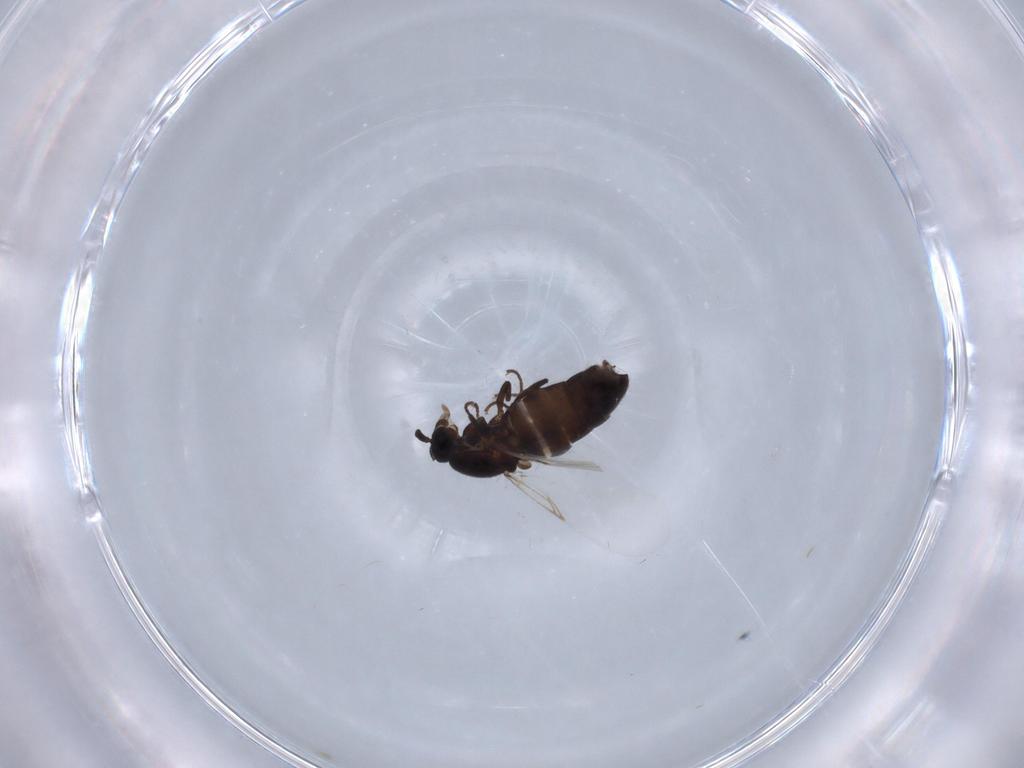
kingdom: Animalia
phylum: Arthropoda
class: Insecta
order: Diptera
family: Scatopsidae
